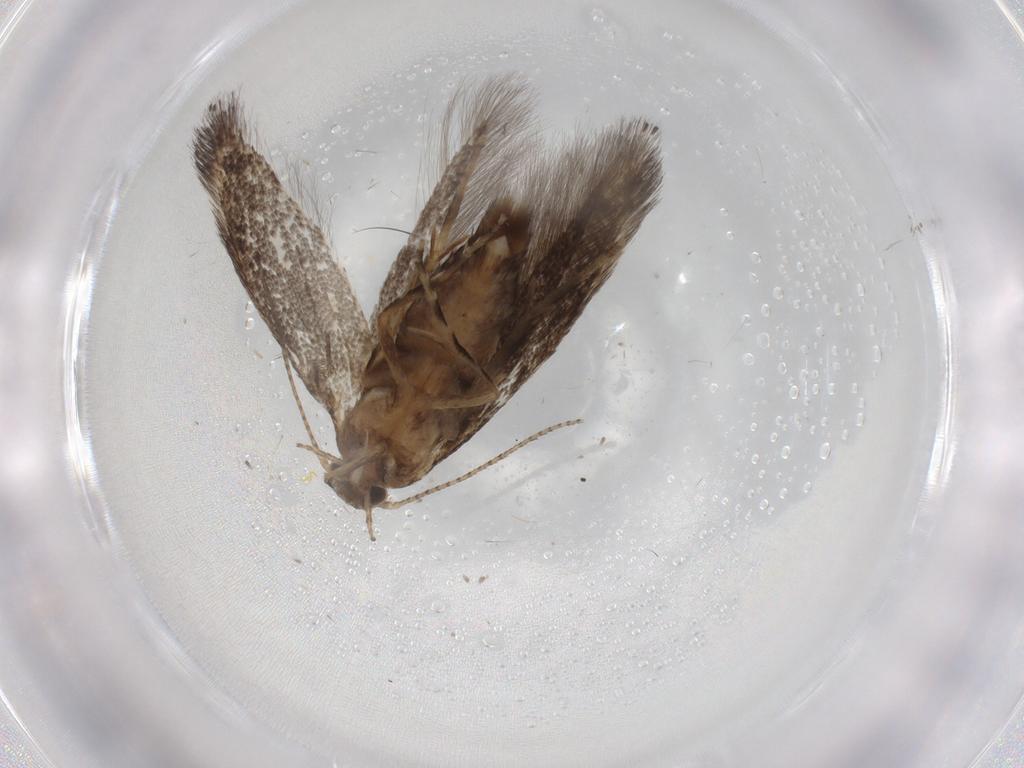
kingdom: Animalia
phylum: Arthropoda
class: Insecta
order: Lepidoptera
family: Elachistidae
